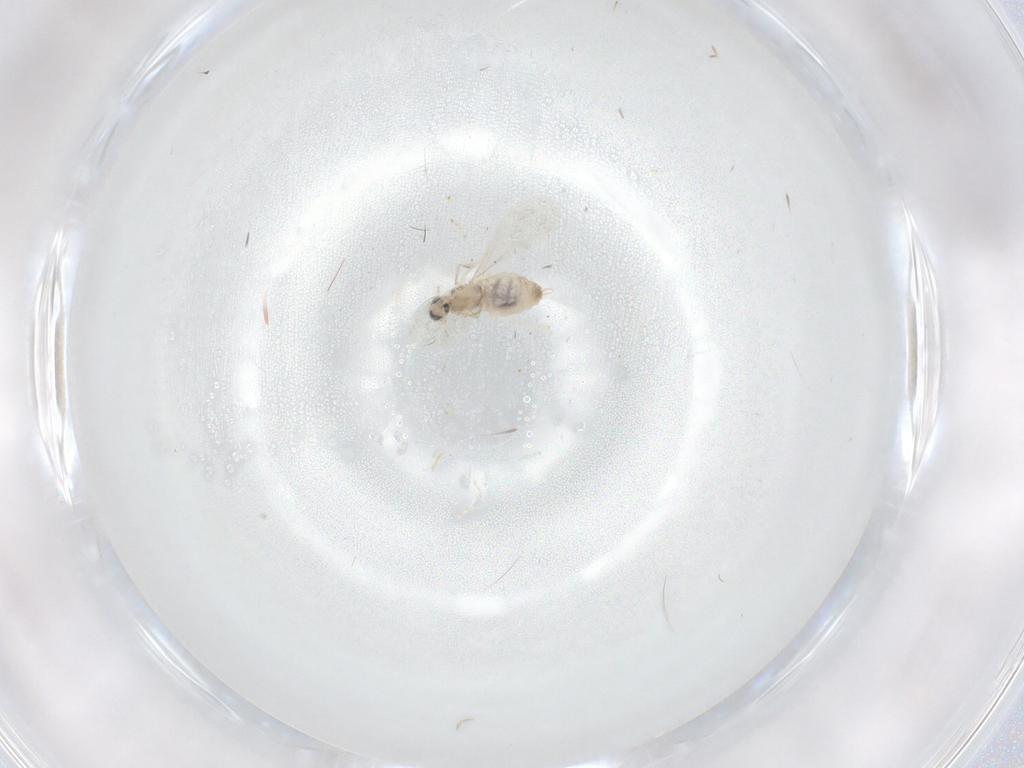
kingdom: Animalia
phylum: Arthropoda
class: Insecta
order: Diptera
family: Cecidomyiidae
